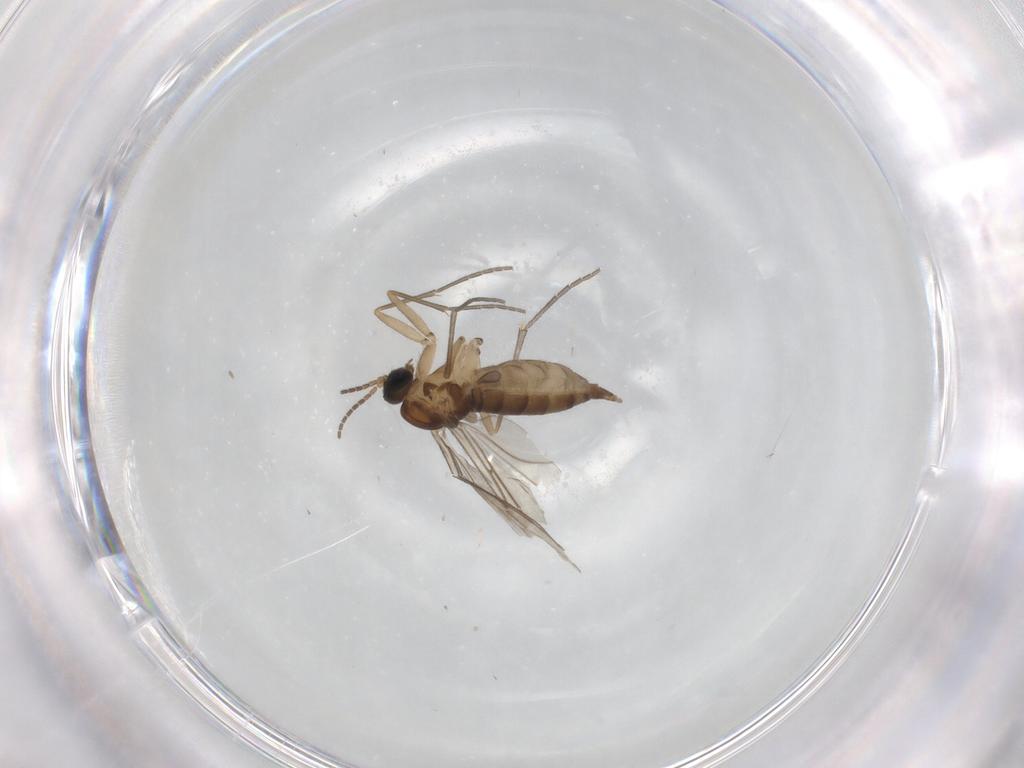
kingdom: Animalia
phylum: Arthropoda
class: Insecta
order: Diptera
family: Sciaridae
